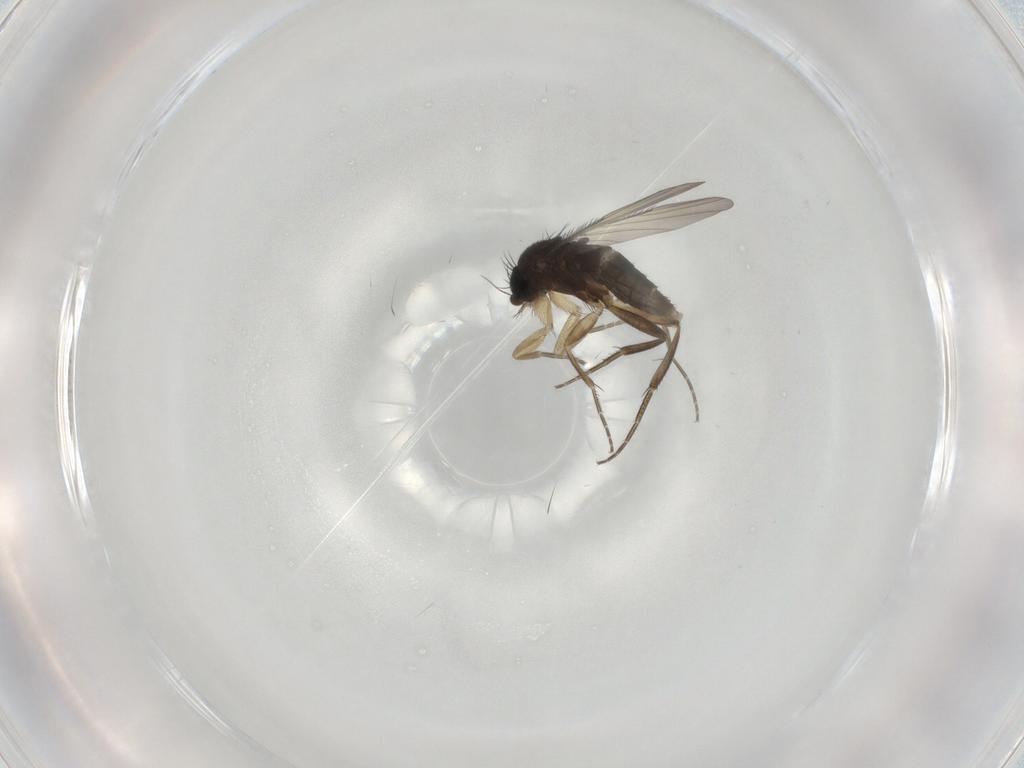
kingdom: Animalia
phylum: Arthropoda
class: Insecta
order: Diptera
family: Phoridae
